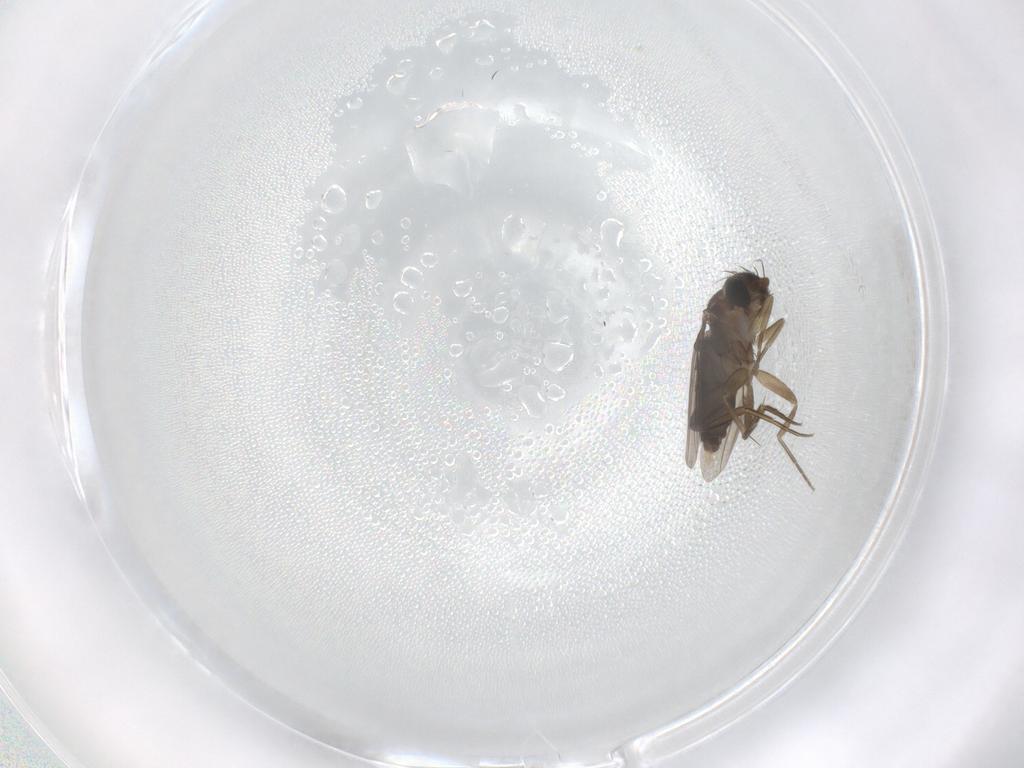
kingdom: Animalia
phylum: Arthropoda
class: Insecta
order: Diptera
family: Phoridae
